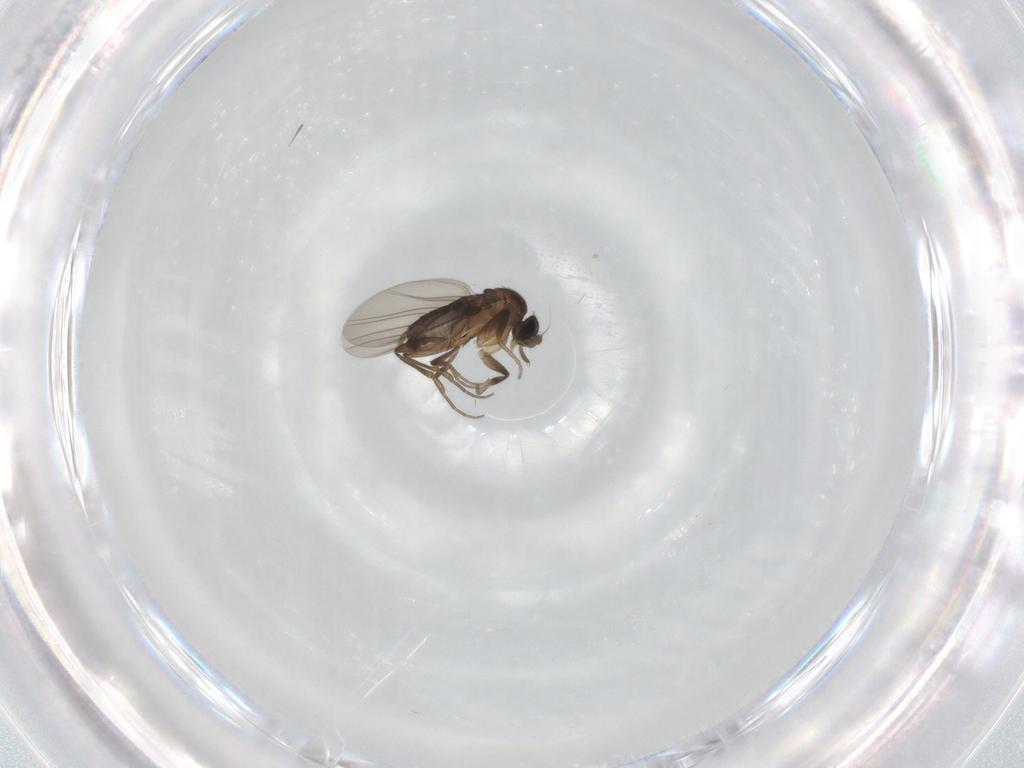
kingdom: Animalia
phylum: Arthropoda
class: Insecta
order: Diptera
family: Phoridae
